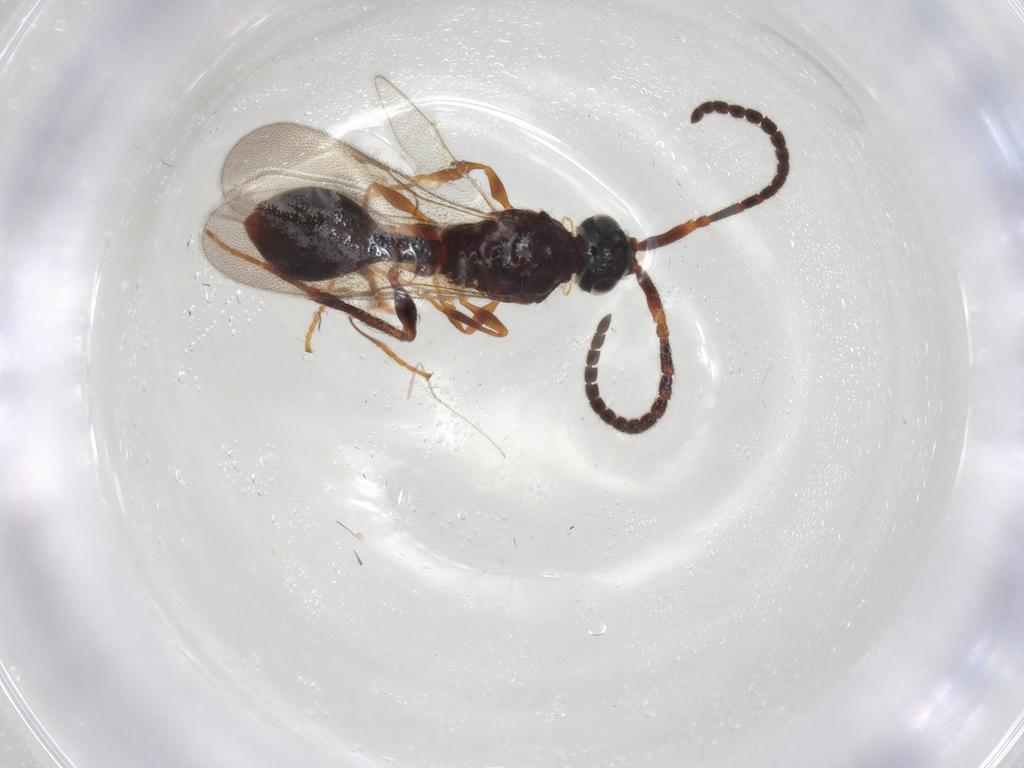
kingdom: Animalia
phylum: Arthropoda
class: Insecta
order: Hymenoptera
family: Diapriidae
